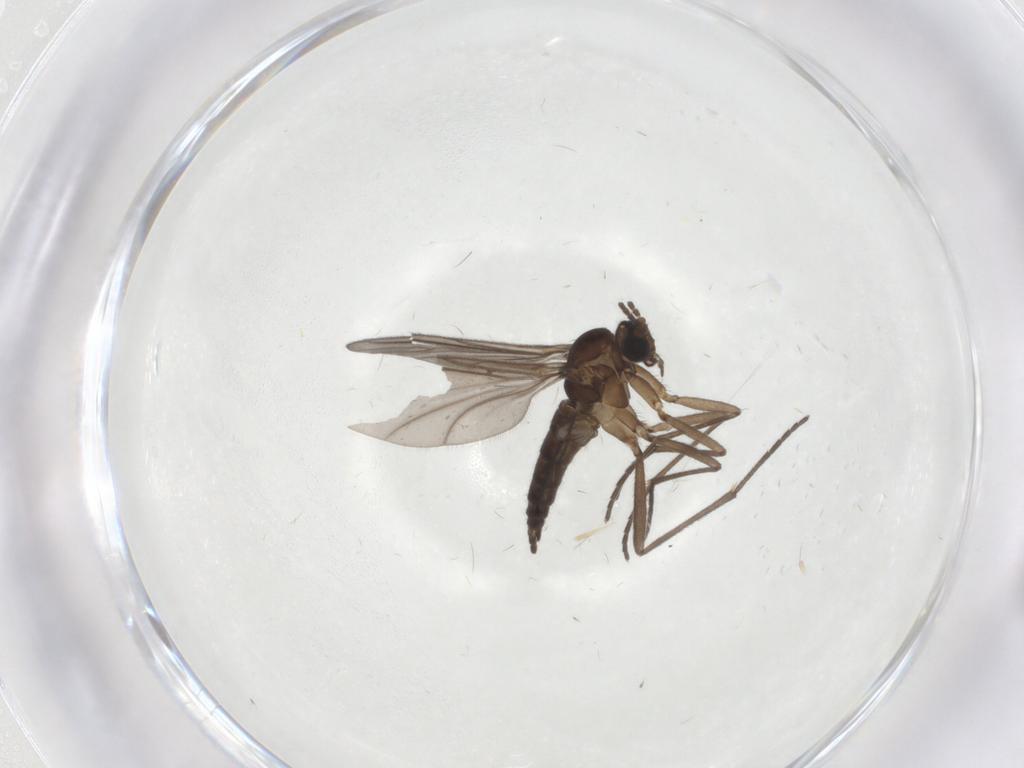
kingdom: Animalia
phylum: Arthropoda
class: Insecta
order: Diptera
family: Sciaridae
